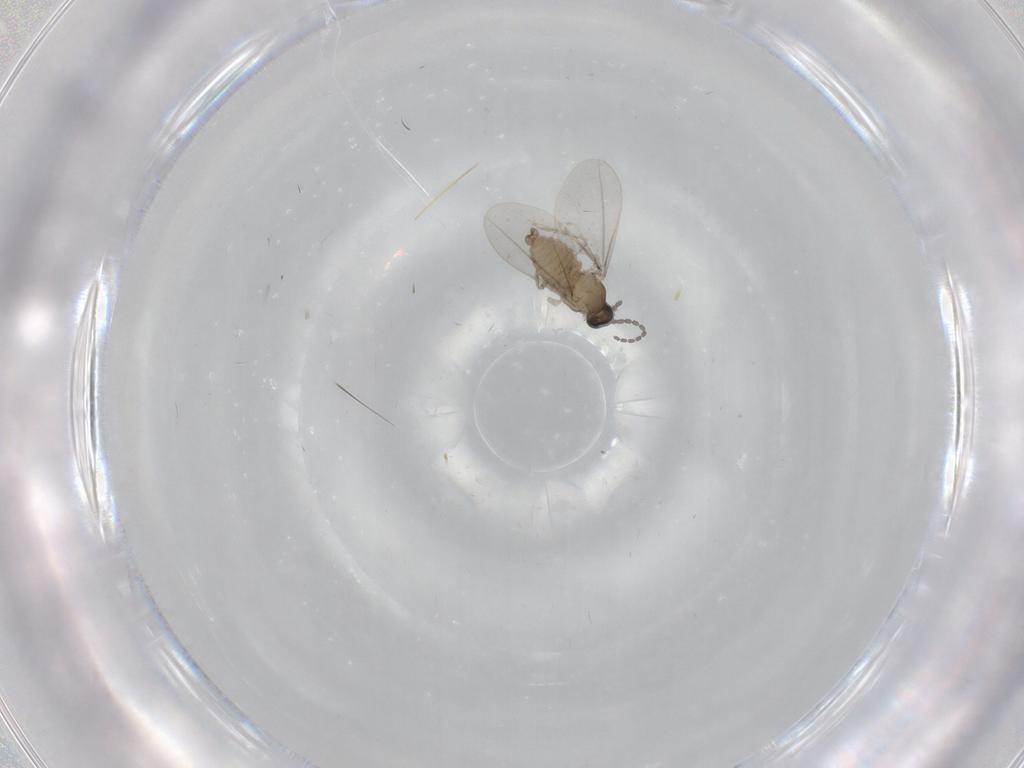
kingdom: Animalia
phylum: Arthropoda
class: Insecta
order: Diptera
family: Cecidomyiidae
